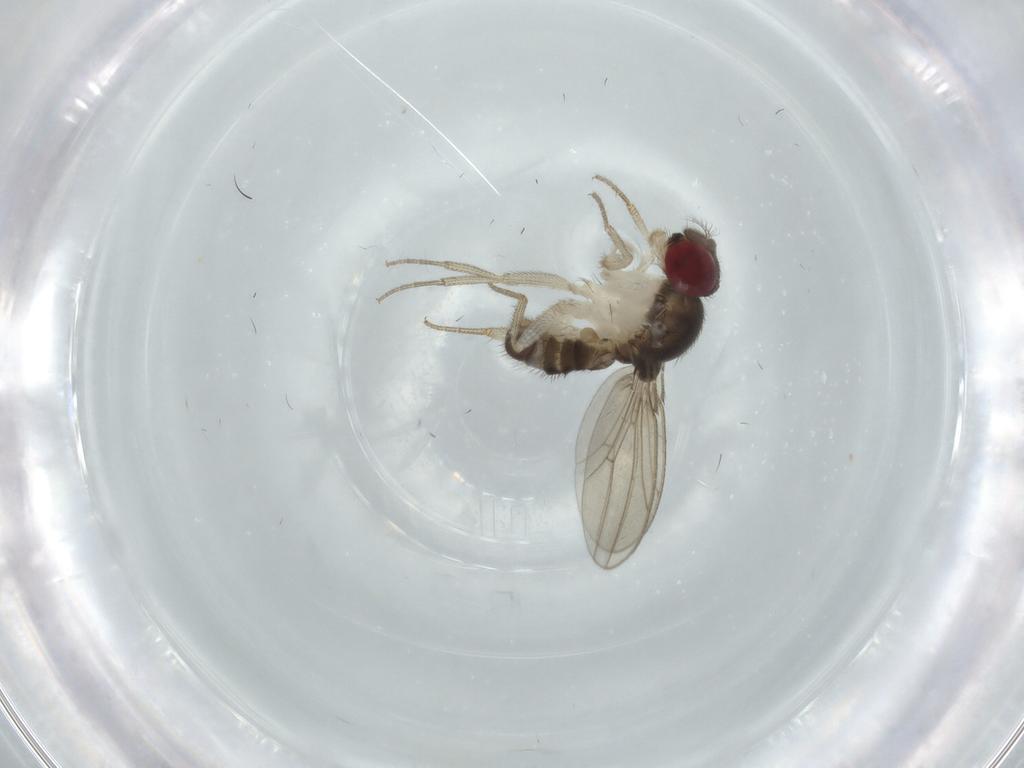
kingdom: Animalia
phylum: Arthropoda
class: Insecta
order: Diptera
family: Drosophilidae
